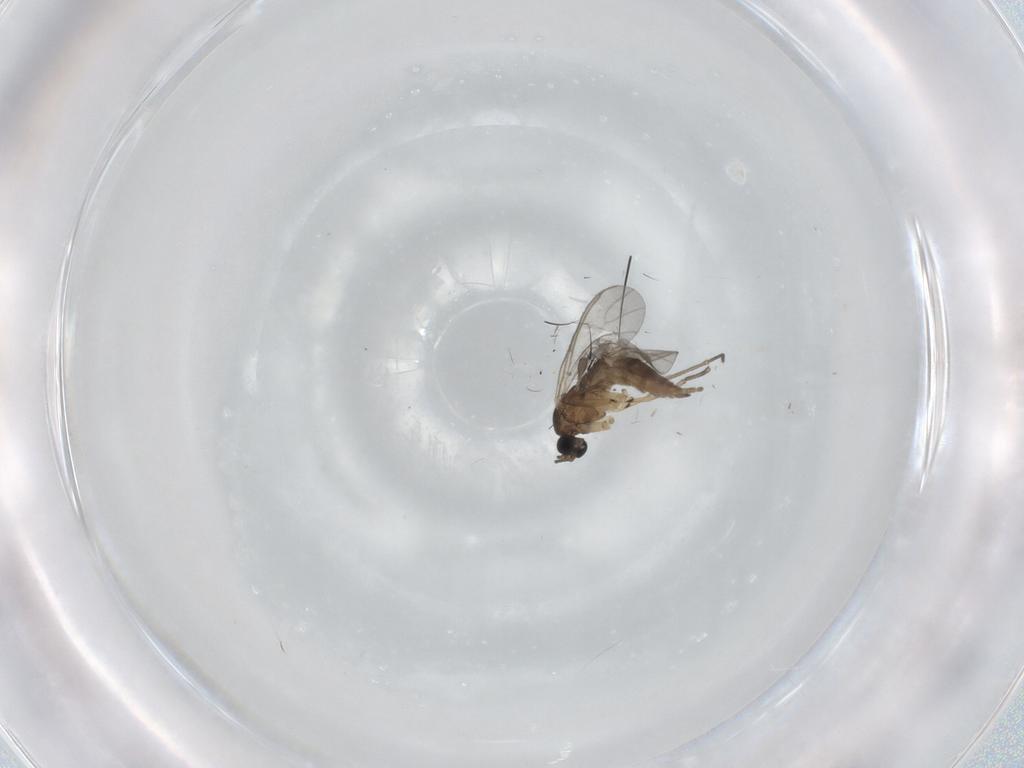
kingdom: Animalia
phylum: Arthropoda
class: Insecta
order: Diptera
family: Sciaridae
